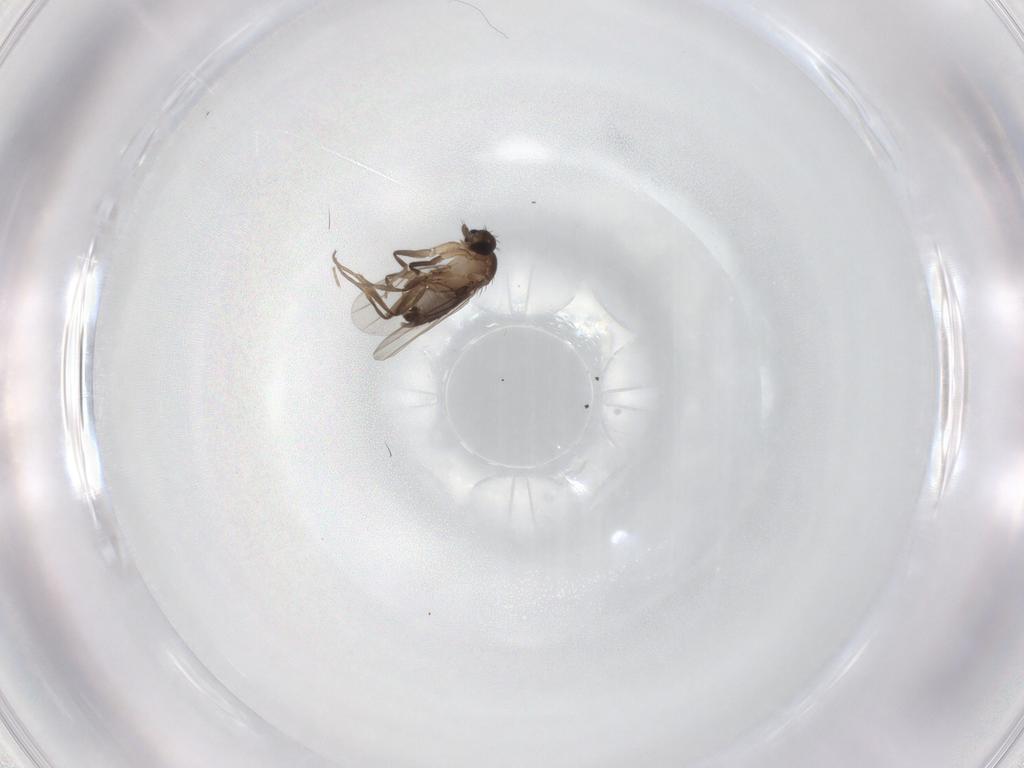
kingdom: Animalia
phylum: Arthropoda
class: Insecta
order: Diptera
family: Phoridae
